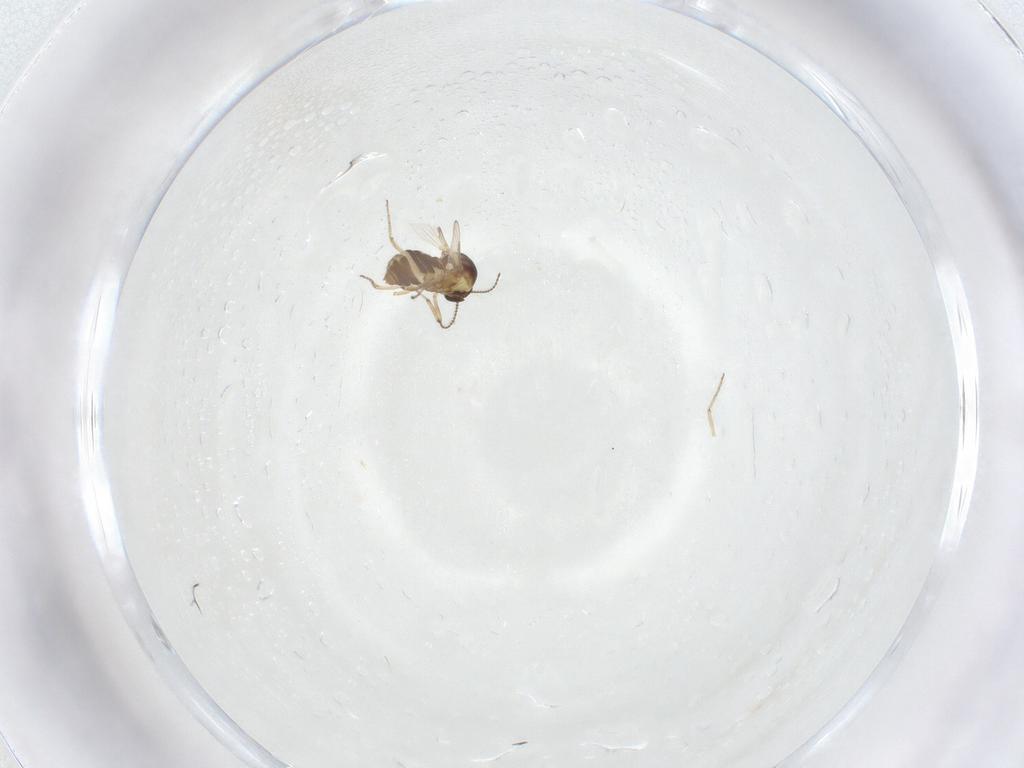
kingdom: Animalia
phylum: Arthropoda
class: Insecta
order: Diptera
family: Ceratopogonidae
